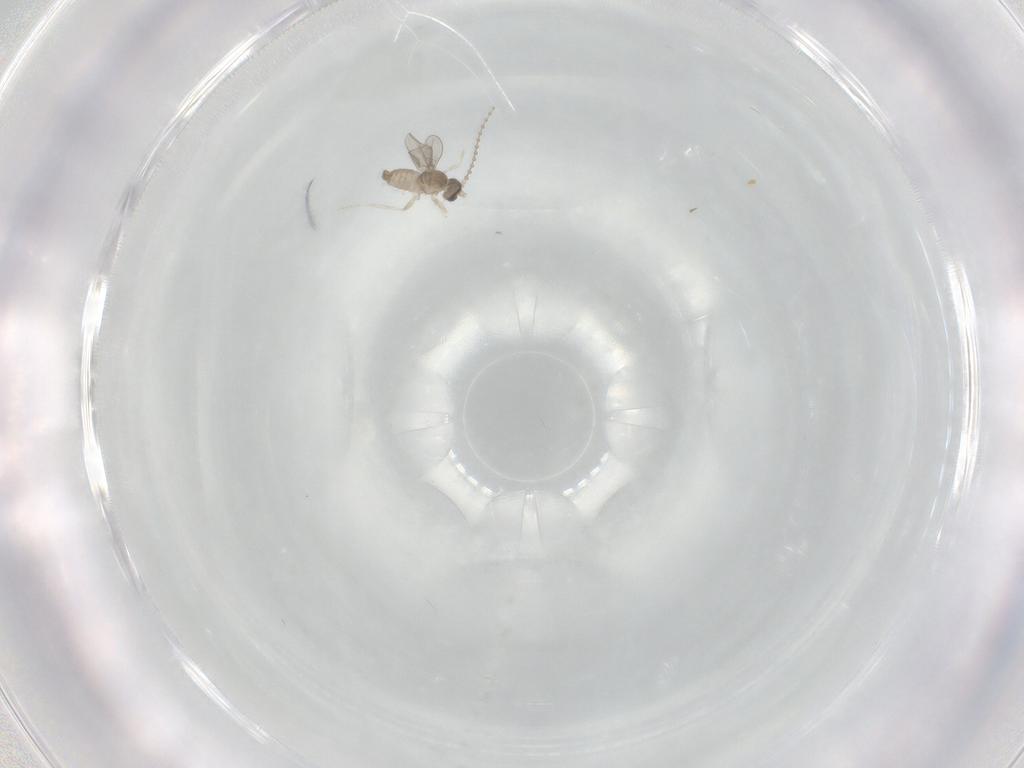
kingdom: Animalia
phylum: Arthropoda
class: Insecta
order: Diptera
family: Cecidomyiidae
